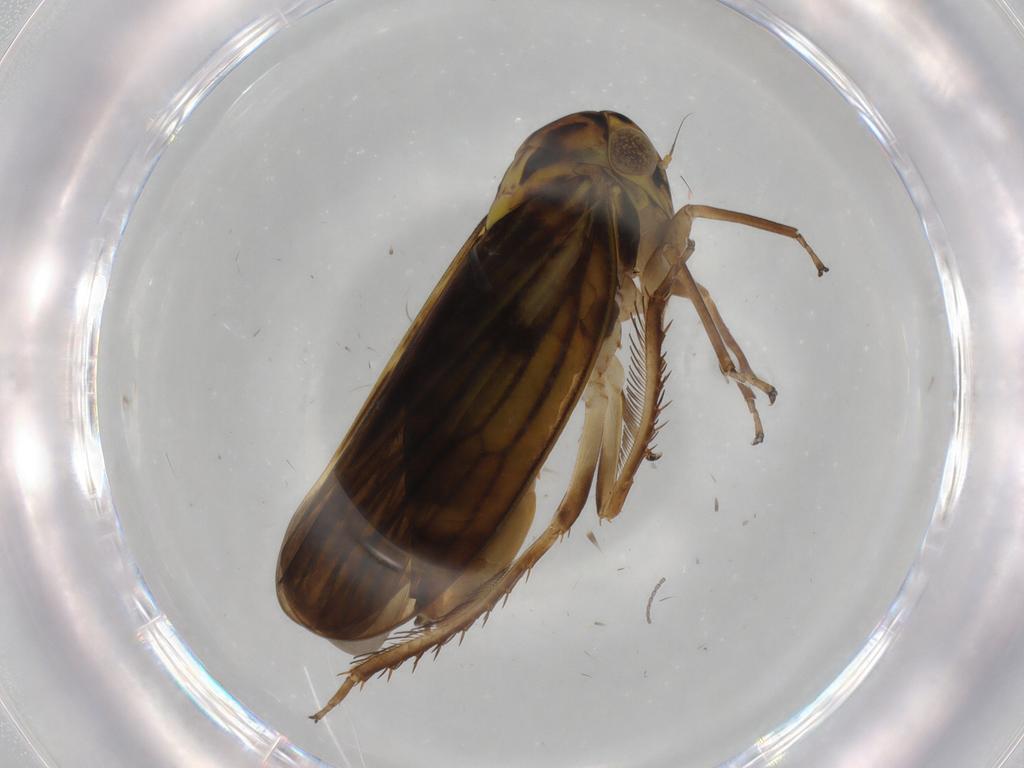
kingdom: Animalia
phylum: Arthropoda
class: Insecta
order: Hemiptera
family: Cicadellidae
